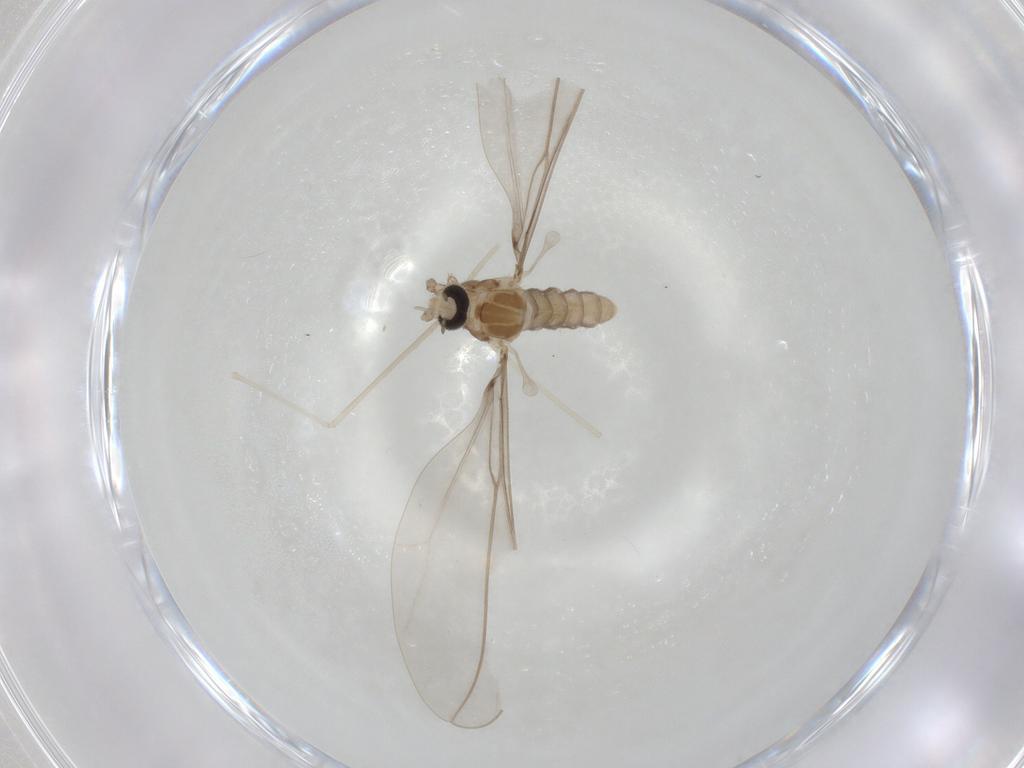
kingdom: Animalia
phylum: Arthropoda
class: Insecta
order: Diptera
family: Cecidomyiidae
